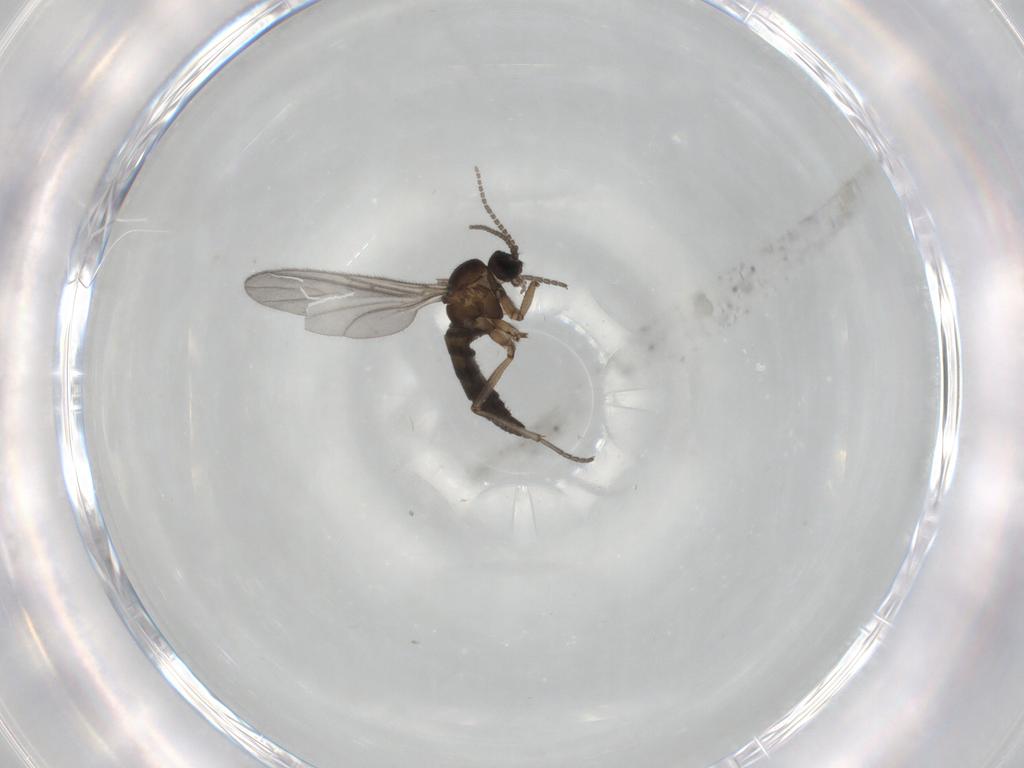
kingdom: Animalia
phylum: Arthropoda
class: Insecta
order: Diptera
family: Sciaridae
